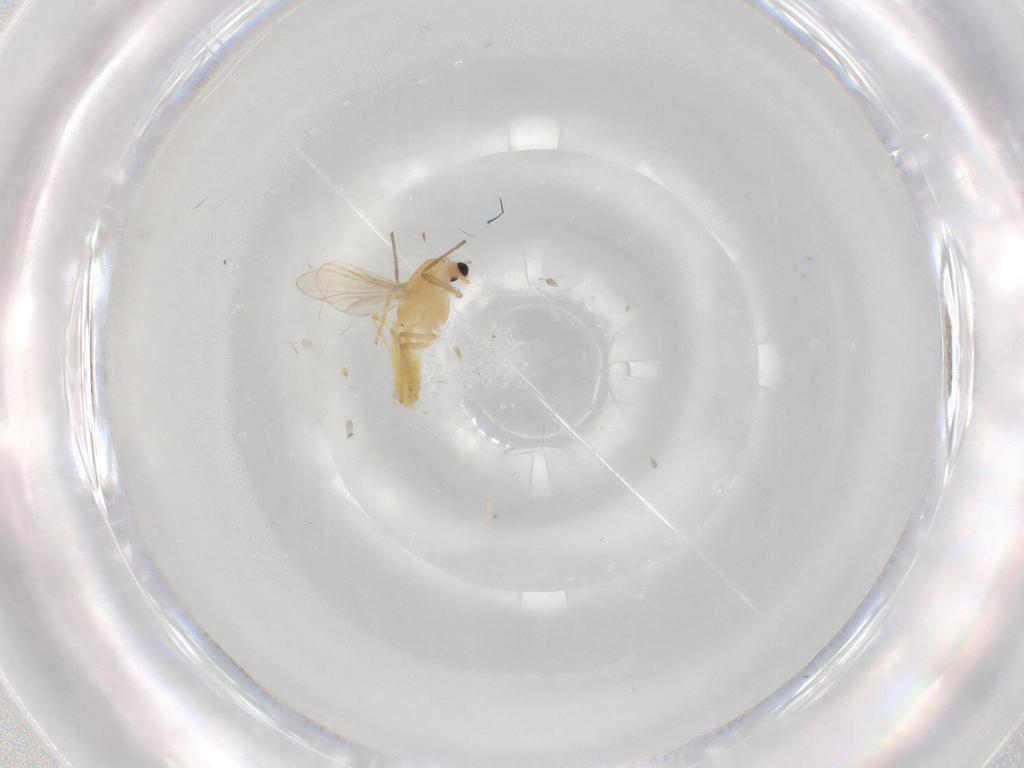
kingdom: Animalia
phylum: Arthropoda
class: Insecta
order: Diptera
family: Chironomidae
